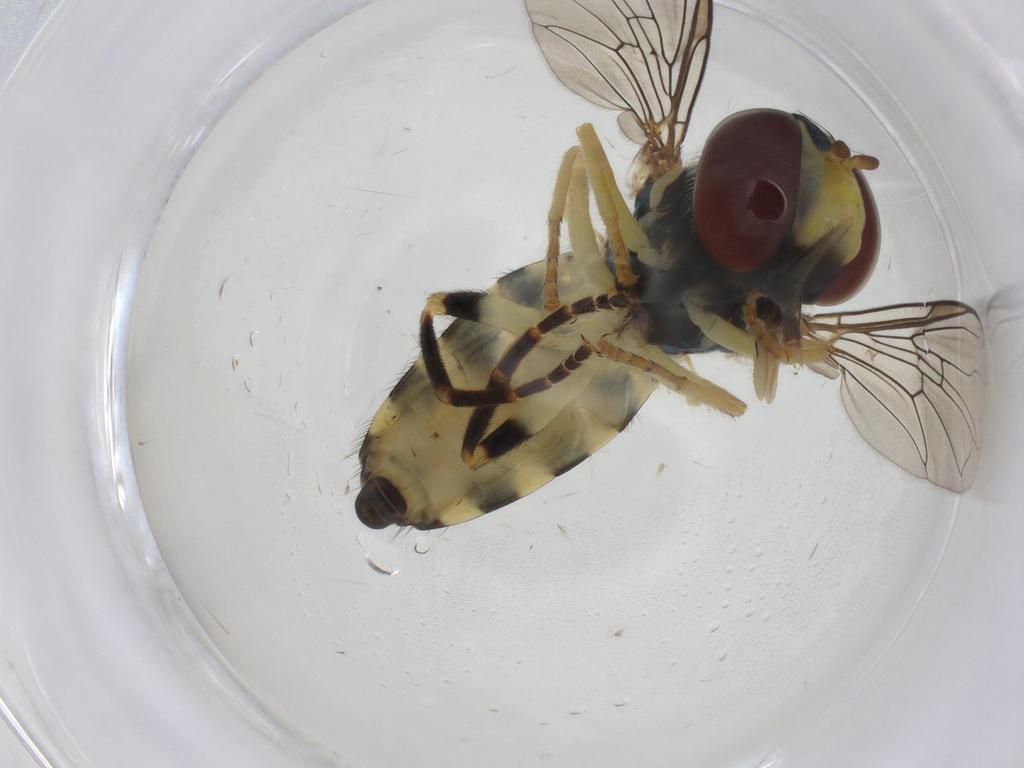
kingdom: Animalia
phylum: Arthropoda
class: Insecta
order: Diptera
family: Syrphidae
